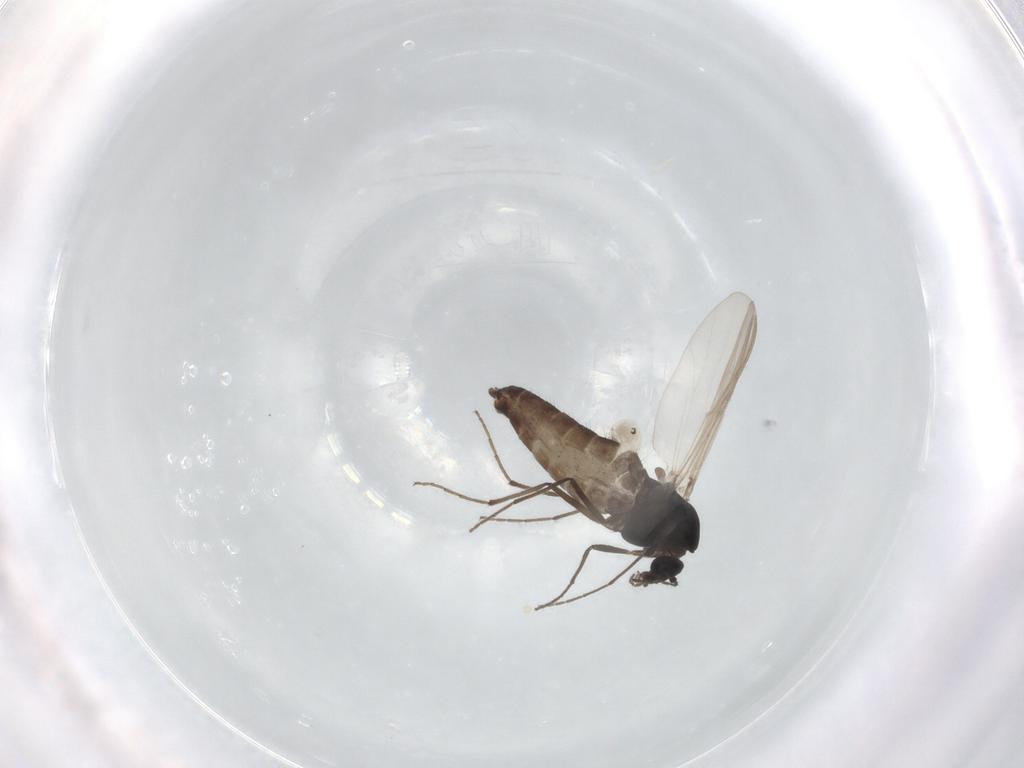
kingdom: Animalia
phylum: Arthropoda
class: Insecta
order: Diptera
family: Chironomidae
